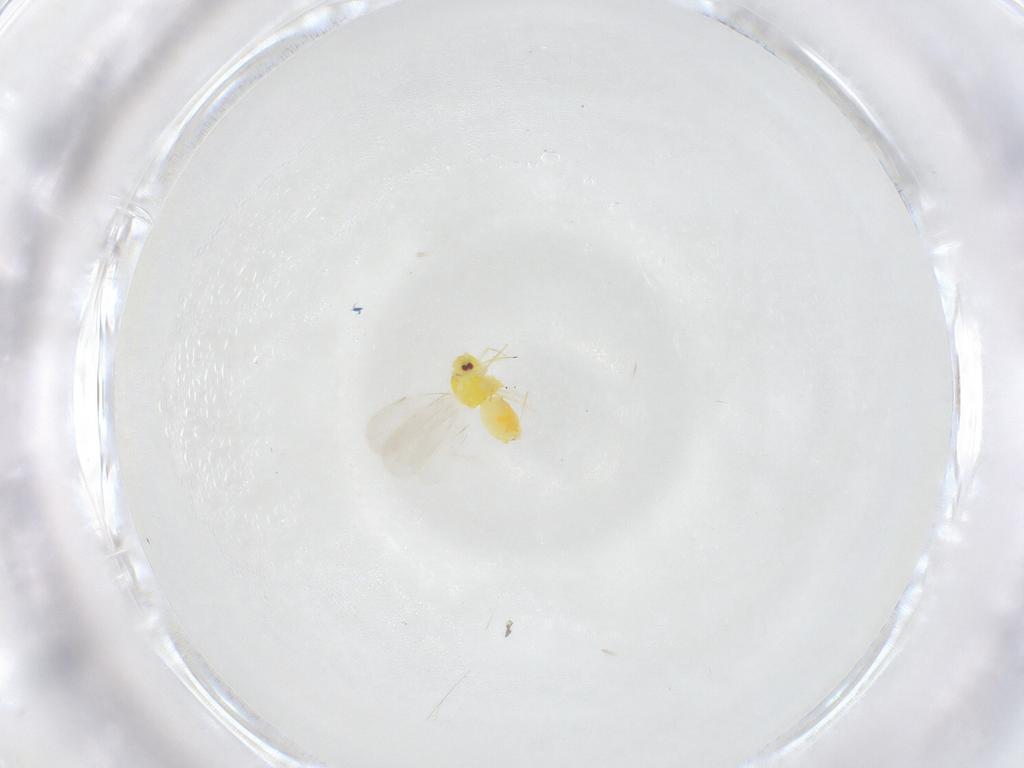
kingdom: Animalia
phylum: Arthropoda
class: Insecta
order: Hemiptera
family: Aleyrodidae
